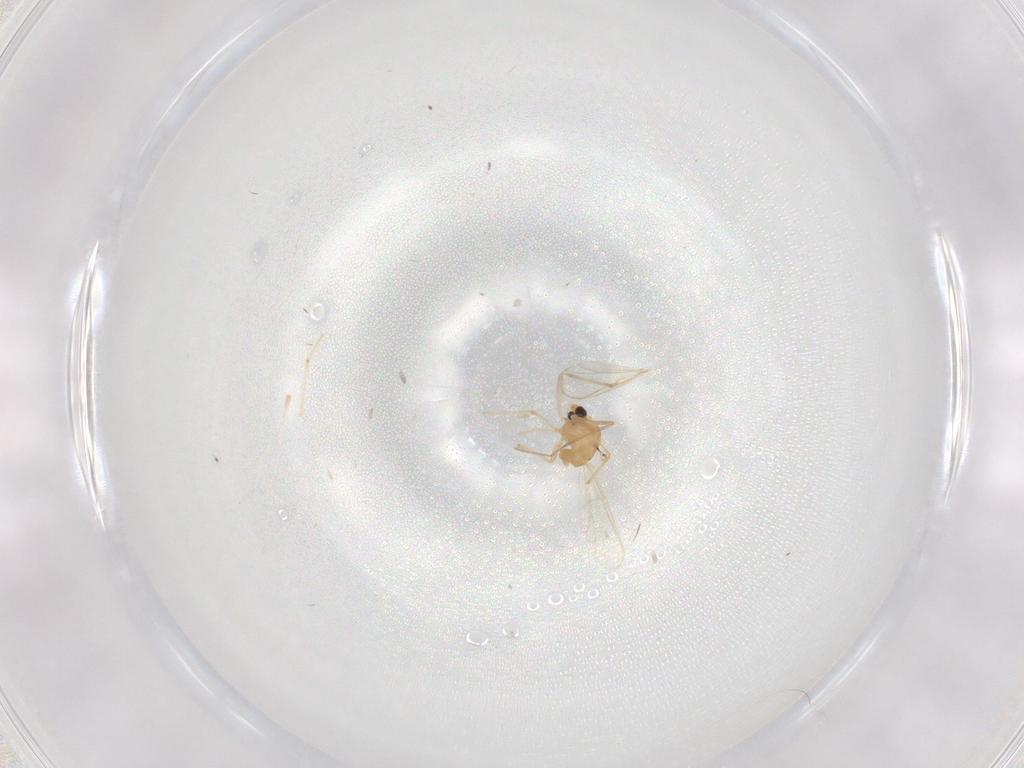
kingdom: Animalia
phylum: Arthropoda
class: Insecta
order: Diptera
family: Chironomidae
